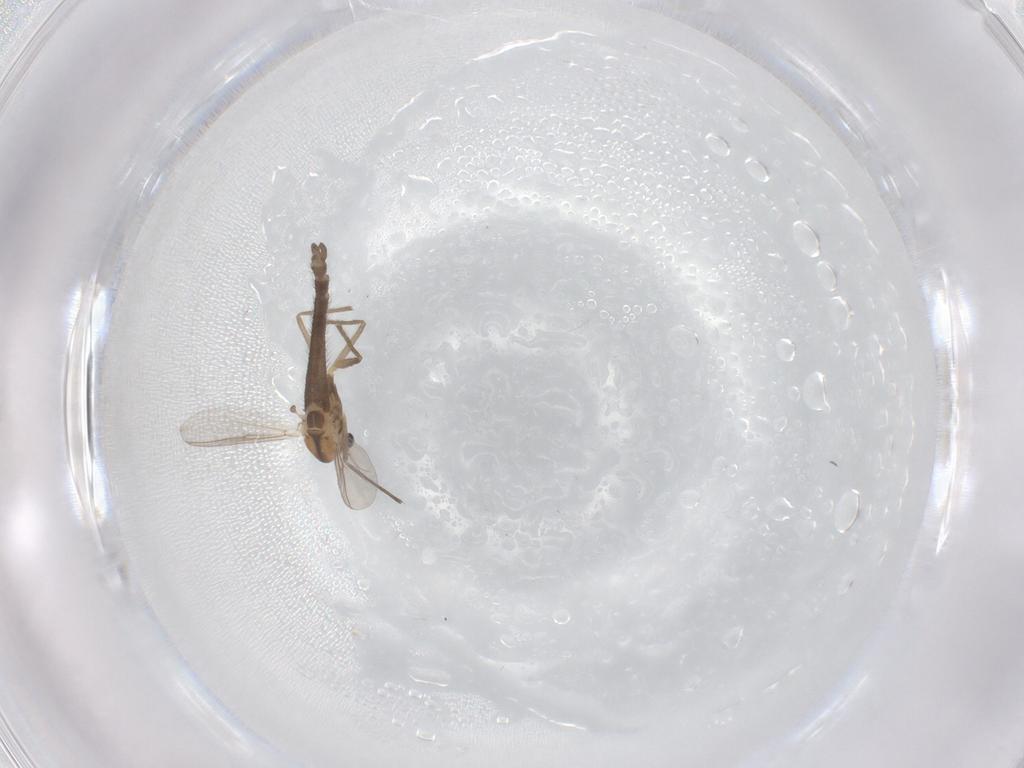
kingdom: Animalia
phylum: Arthropoda
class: Insecta
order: Diptera
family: Chironomidae
